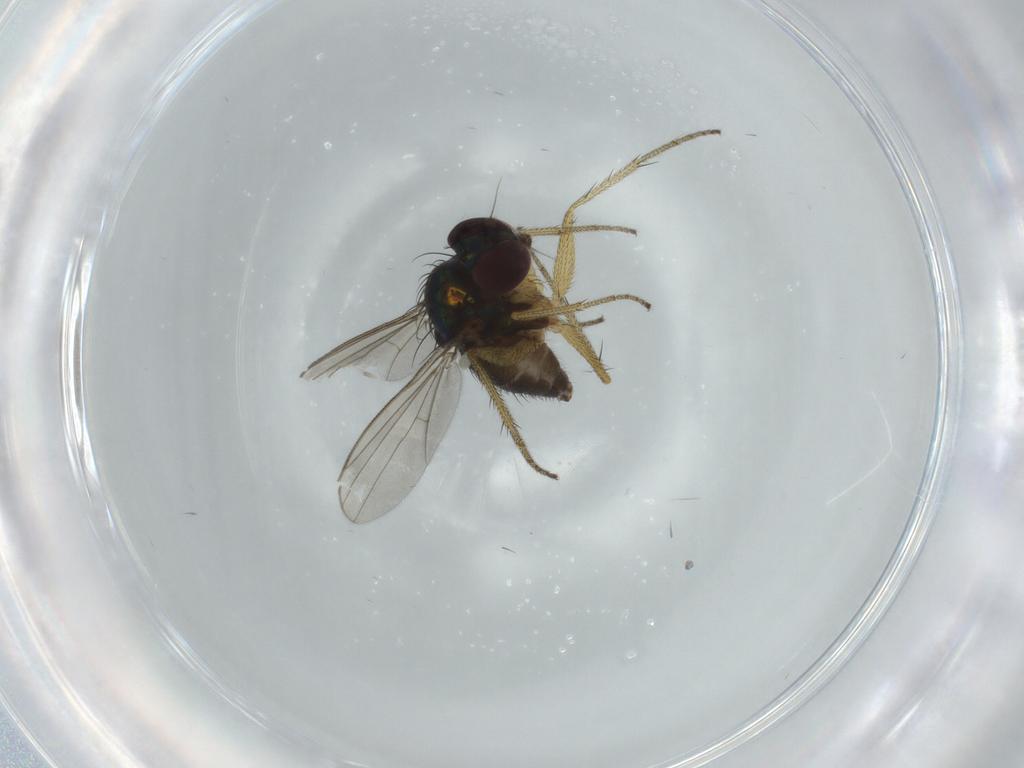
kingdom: Animalia
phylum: Arthropoda
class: Insecta
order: Diptera
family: Dolichopodidae
